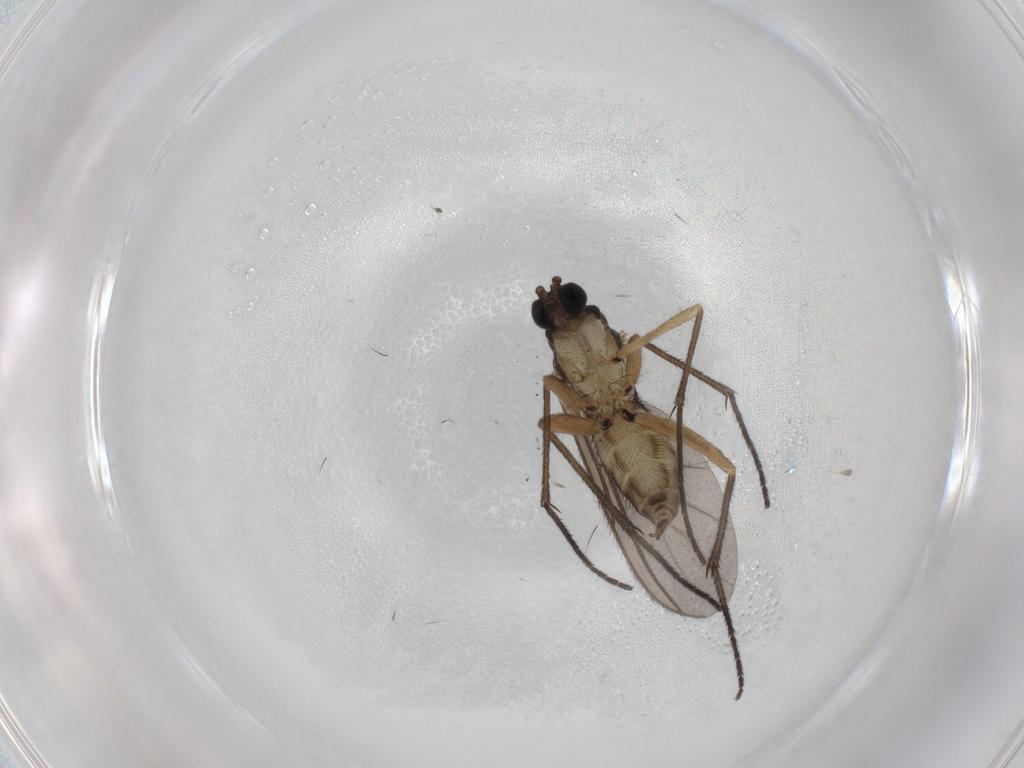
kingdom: Animalia
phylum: Arthropoda
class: Insecta
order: Diptera
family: Sciaridae
